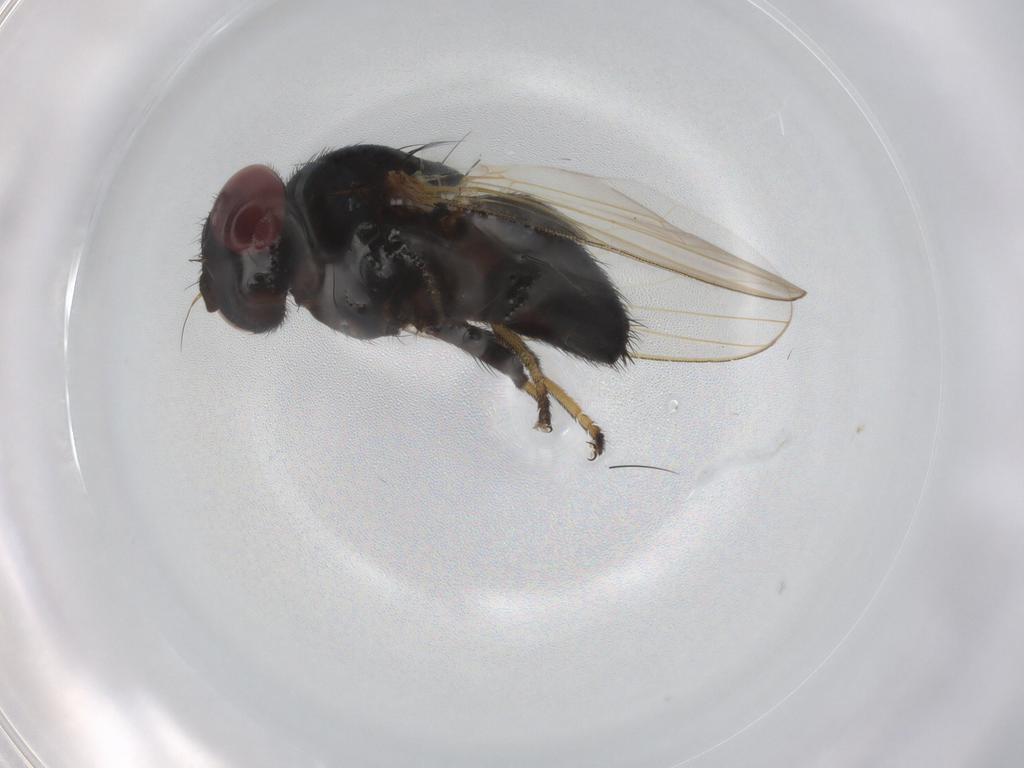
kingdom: Animalia
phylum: Arthropoda
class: Insecta
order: Diptera
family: Lonchaeidae
